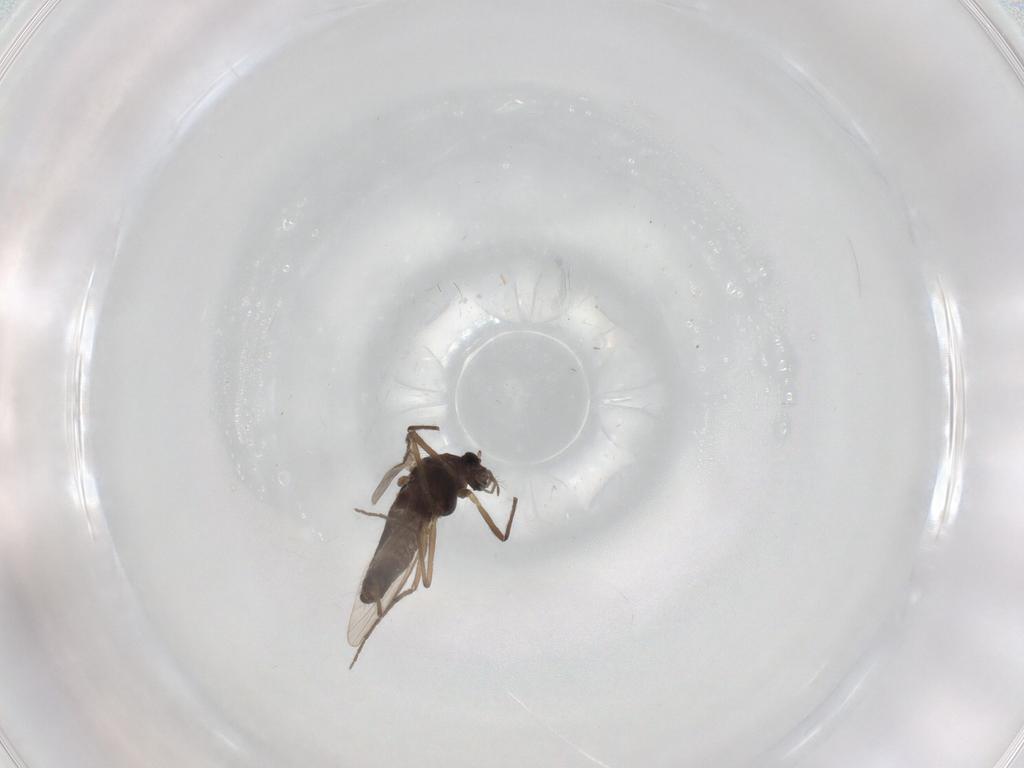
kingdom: Animalia
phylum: Arthropoda
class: Insecta
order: Diptera
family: Chironomidae
